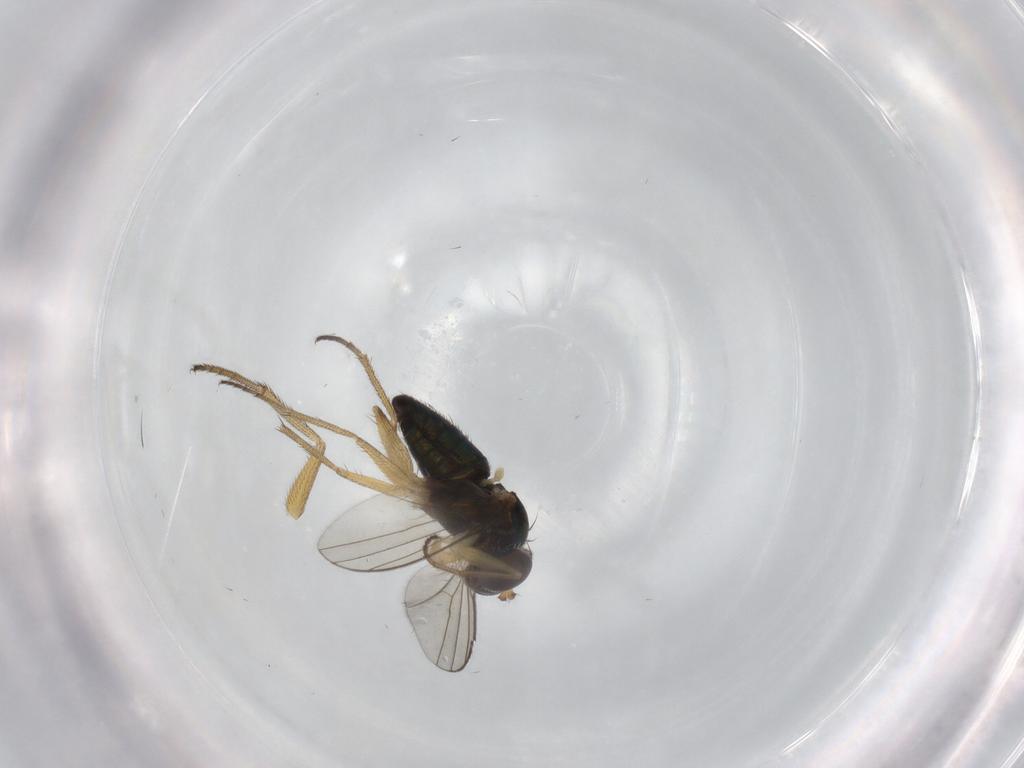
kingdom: Animalia
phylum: Arthropoda
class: Insecta
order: Diptera
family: Dolichopodidae
